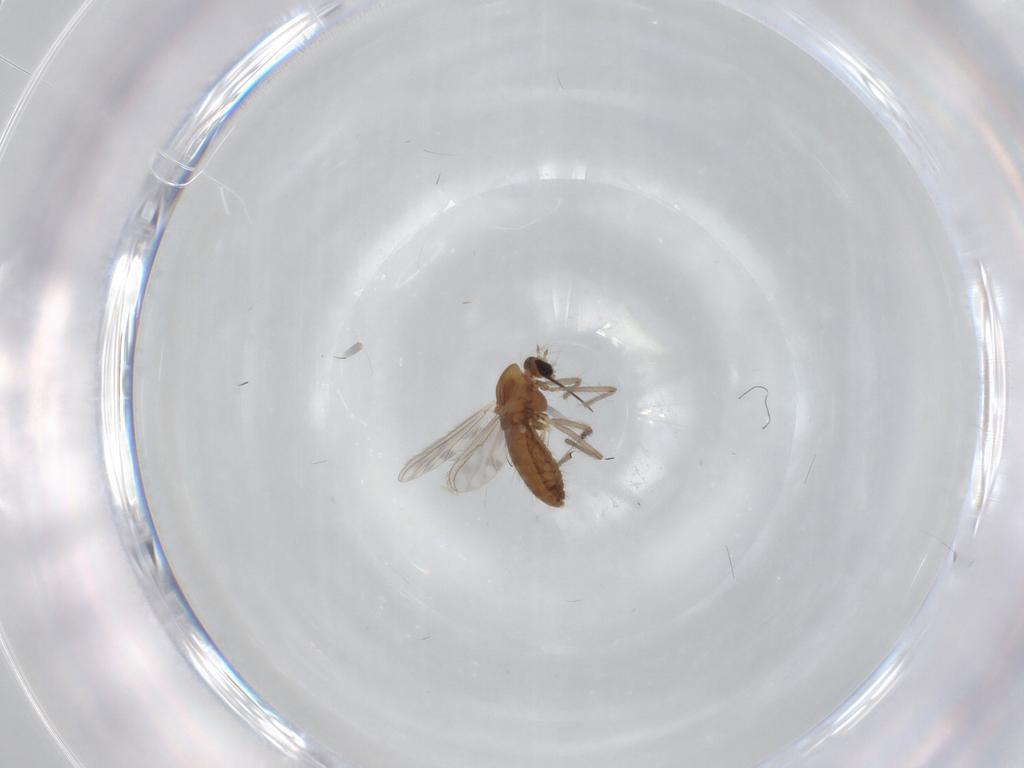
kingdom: Animalia
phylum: Arthropoda
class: Insecta
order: Diptera
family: Chironomidae
